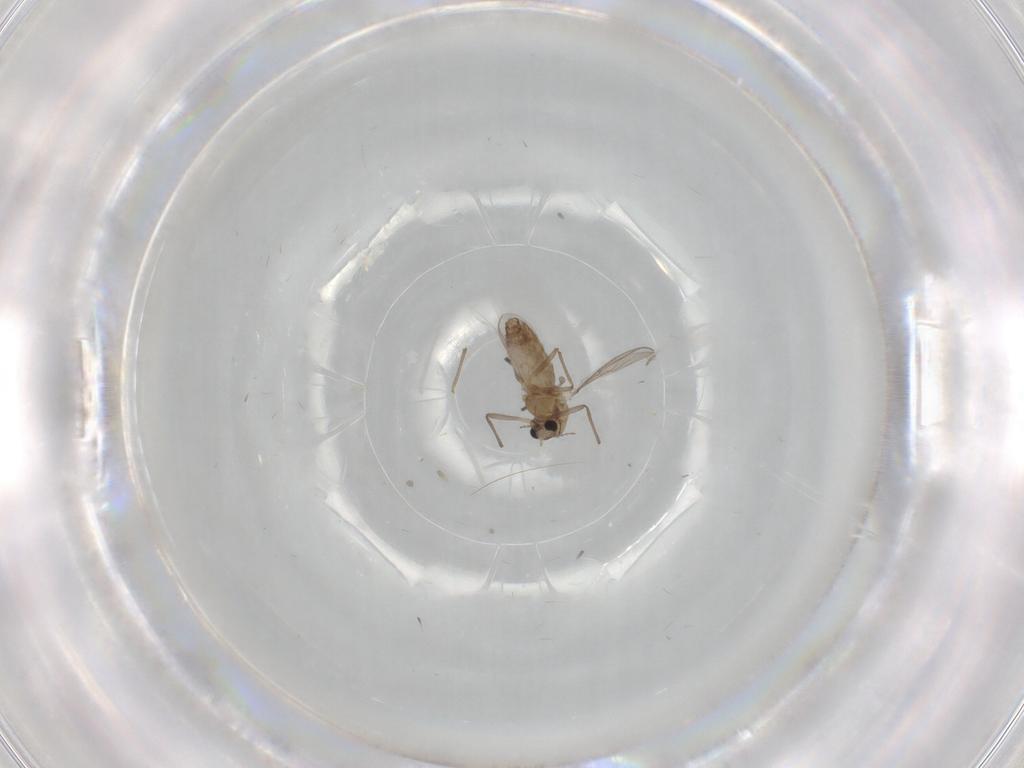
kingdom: Animalia
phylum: Arthropoda
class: Insecta
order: Diptera
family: Chironomidae
